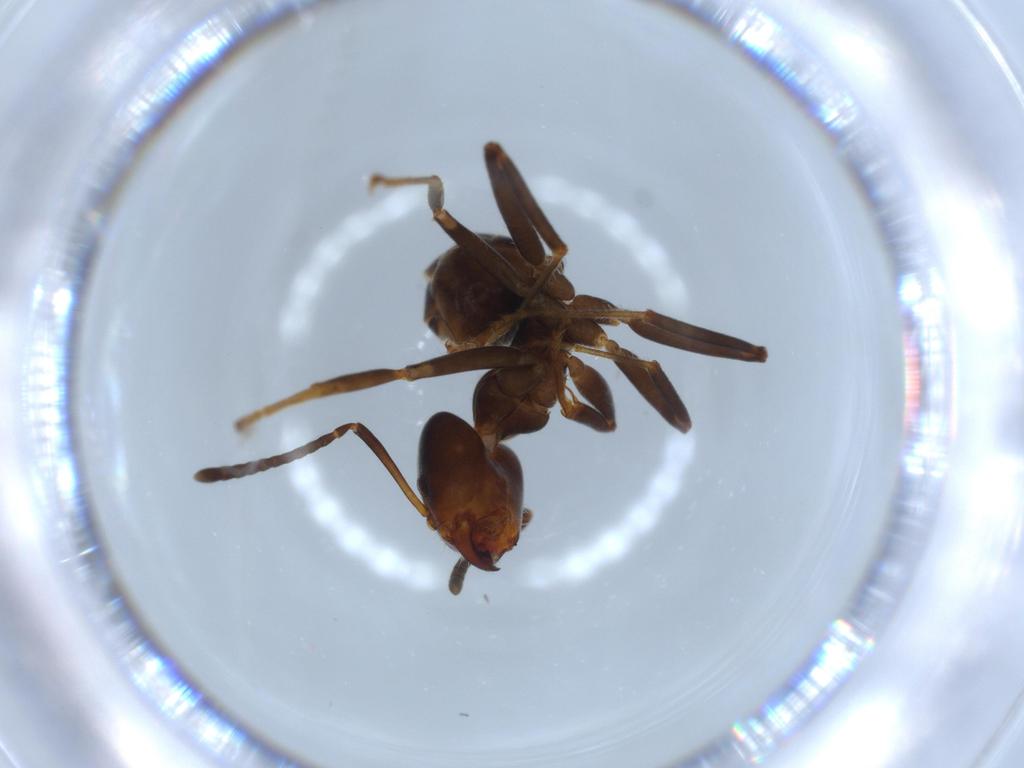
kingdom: Animalia
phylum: Arthropoda
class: Insecta
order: Hymenoptera
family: Formicidae
